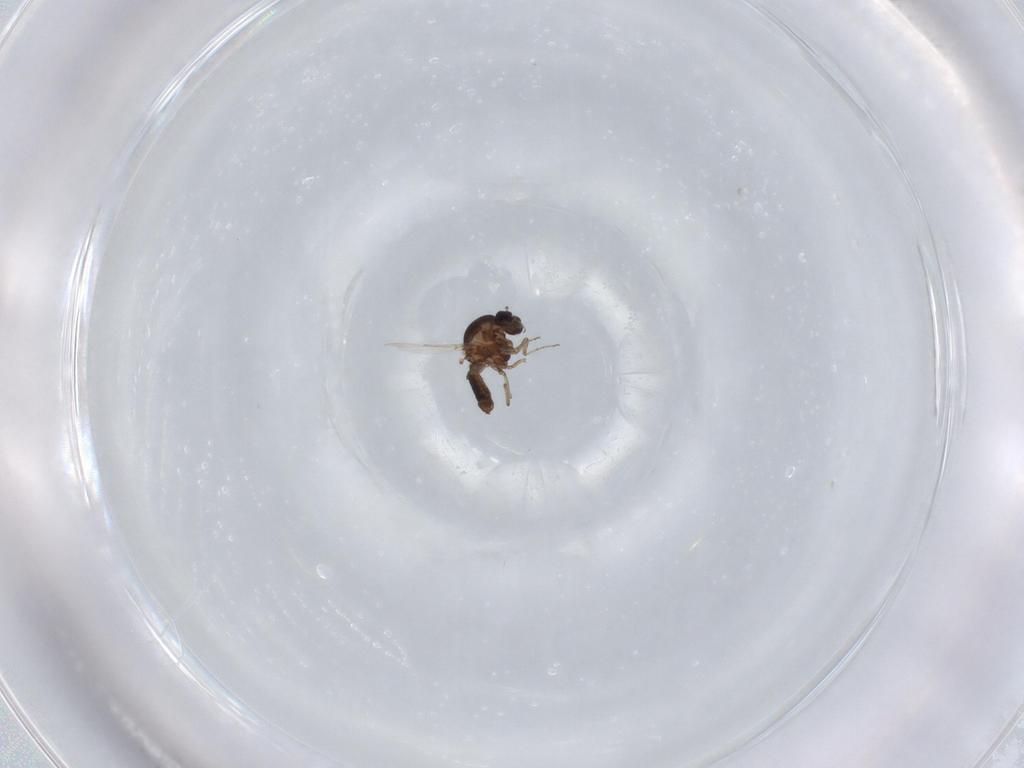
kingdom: Animalia
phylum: Arthropoda
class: Insecta
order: Diptera
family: Ceratopogonidae
